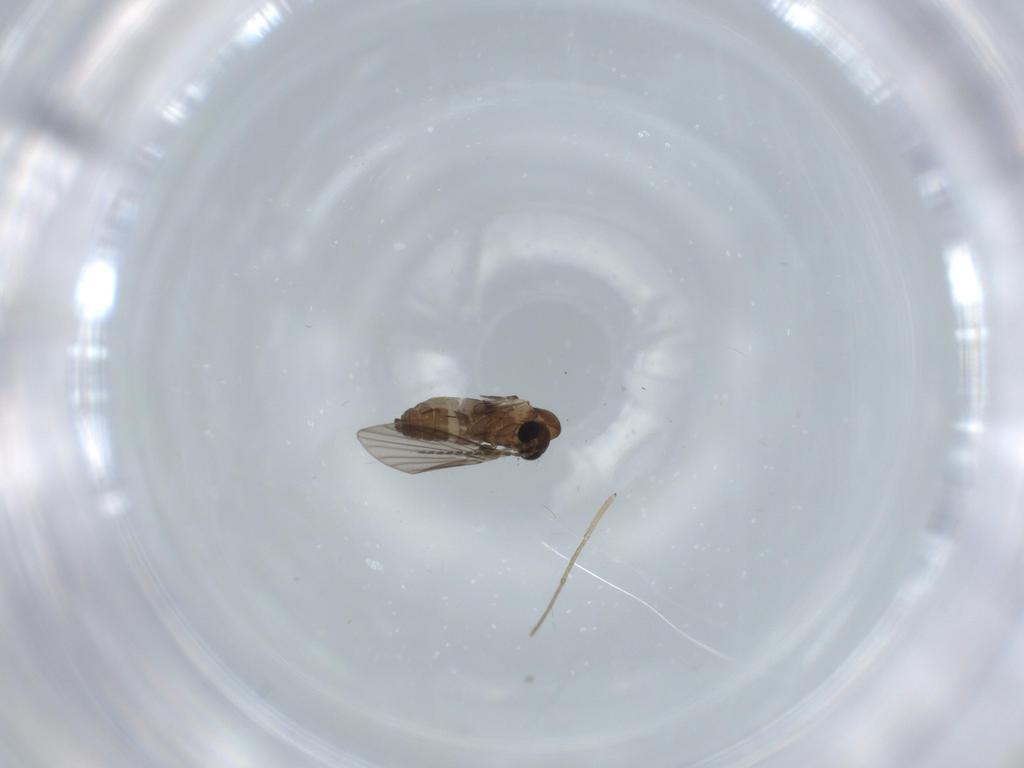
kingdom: Animalia
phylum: Arthropoda
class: Insecta
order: Diptera
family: Psychodidae
